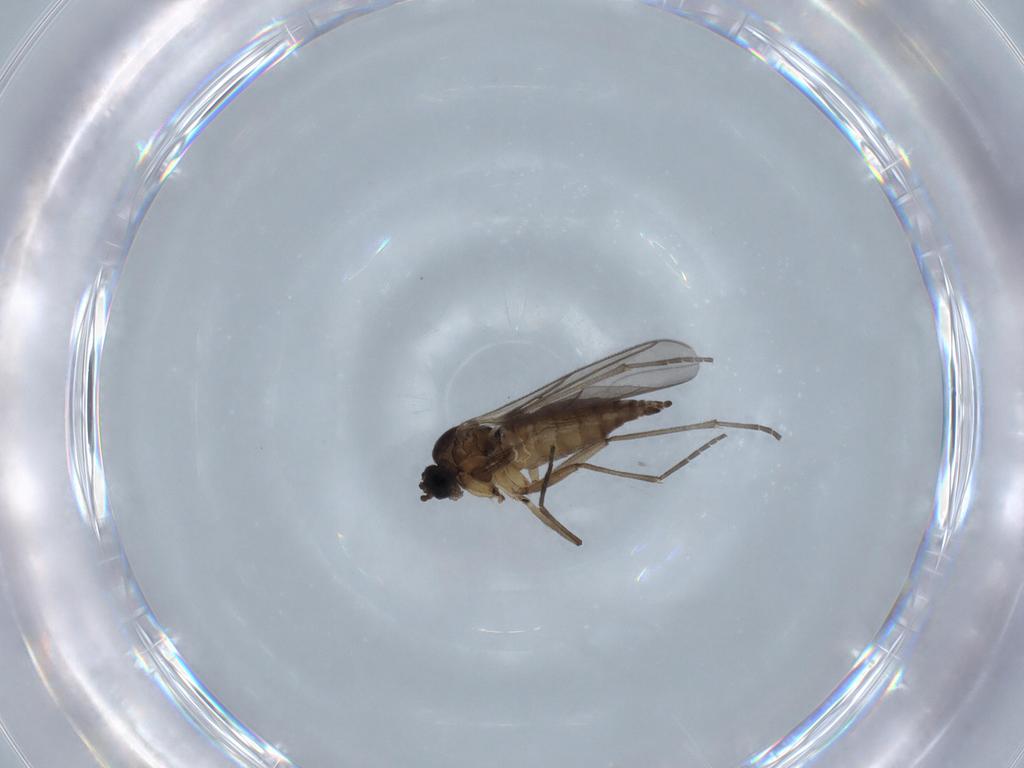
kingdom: Animalia
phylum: Arthropoda
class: Insecta
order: Diptera
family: Sciaridae
